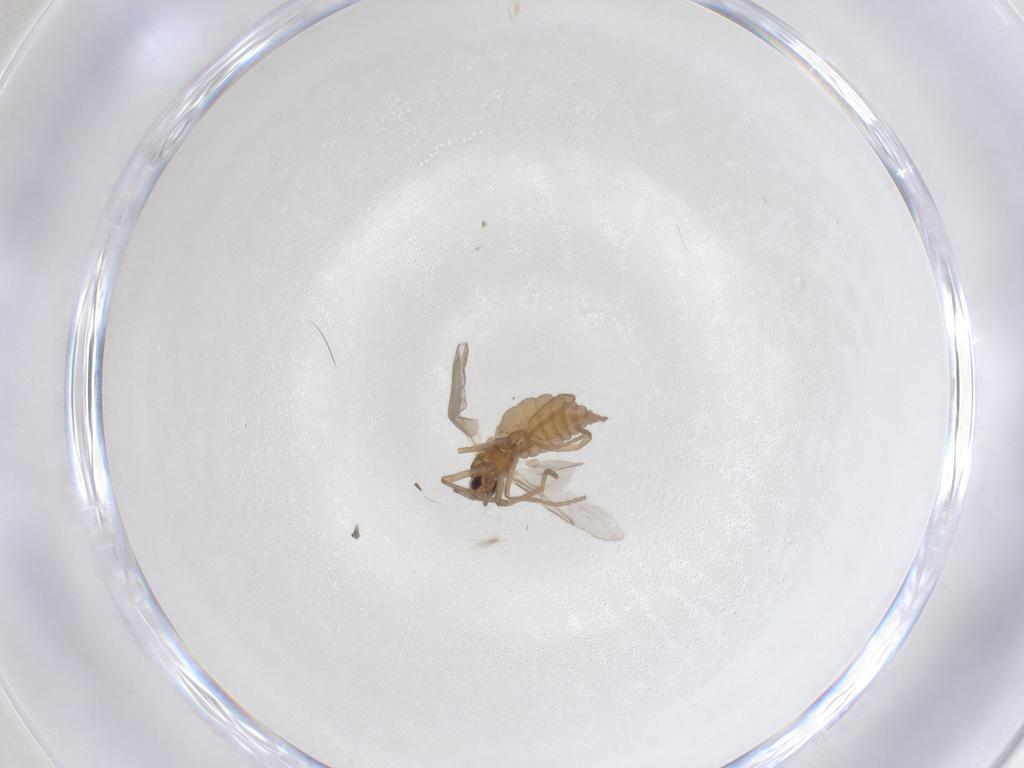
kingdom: Animalia
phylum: Arthropoda
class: Insecta
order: Diptera
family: Cecidomyiidae
